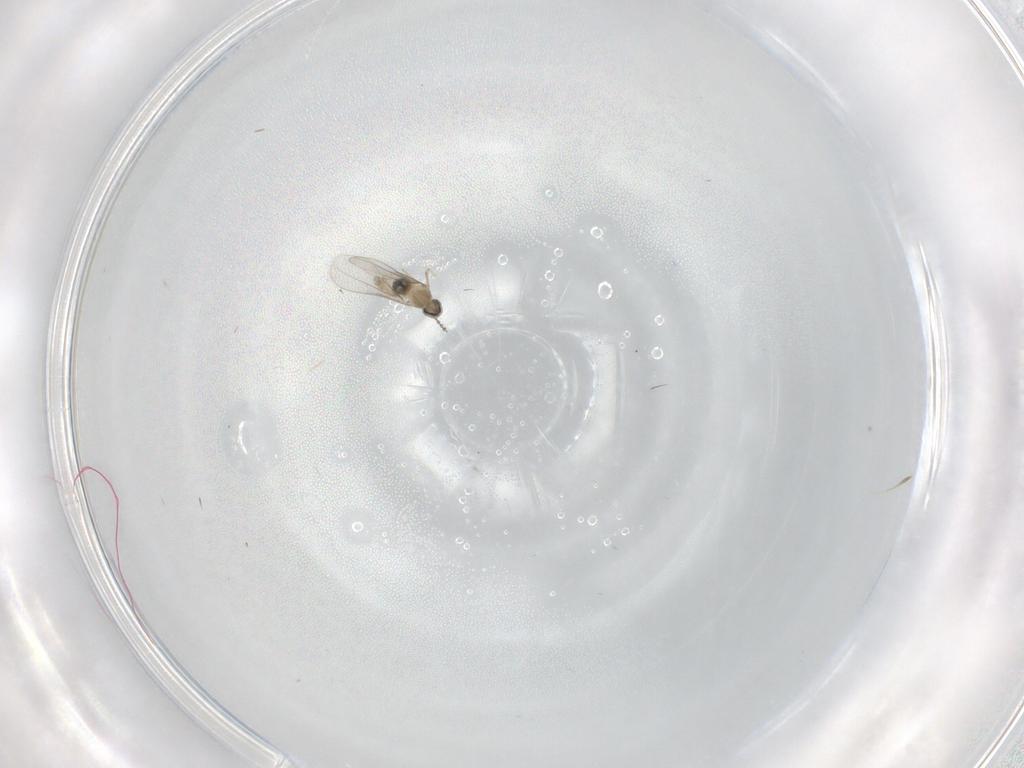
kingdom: Animalia
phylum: Arthropoda
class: Insecta
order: Diptera
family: Cecidomyiidae
